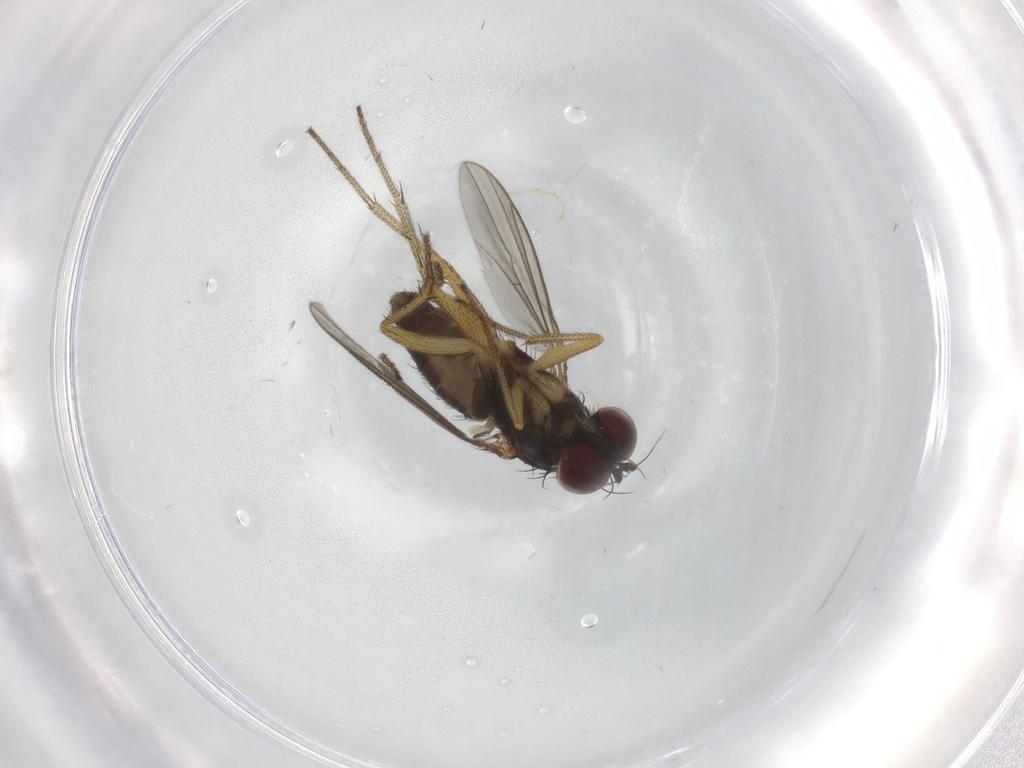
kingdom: Animalia
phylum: Arthropoda
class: Insecta
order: Diptera
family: Chironomidae
